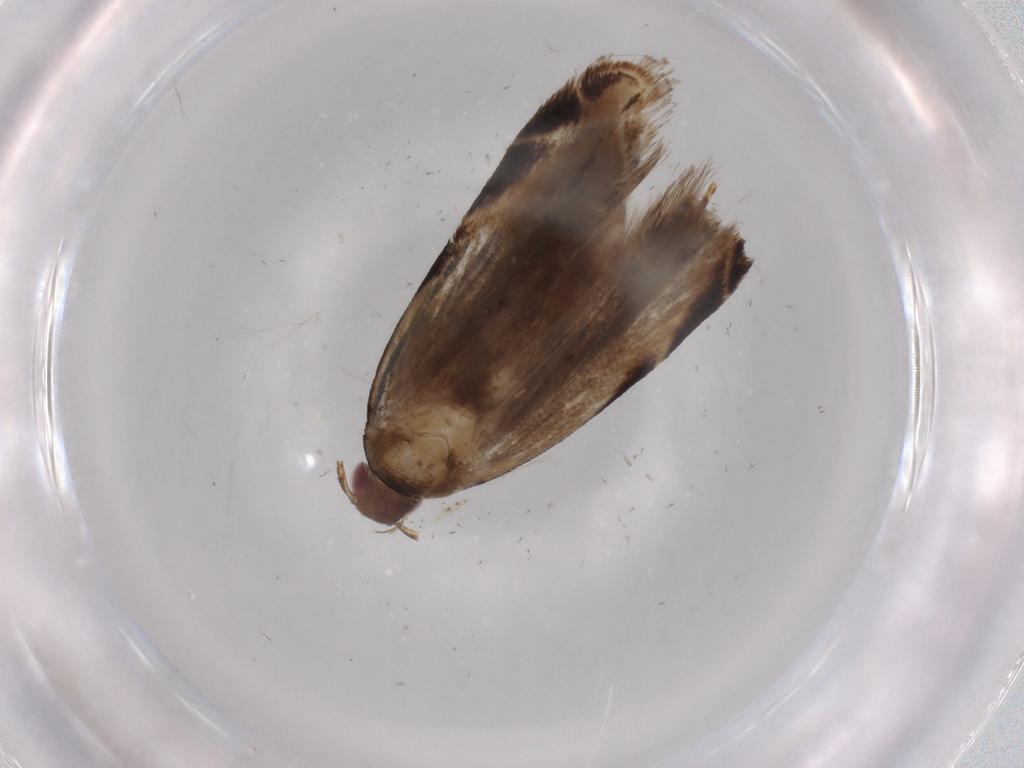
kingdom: Animalia
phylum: Arthropoda
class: Insecta
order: Lepidoptera
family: Gelechiidae
